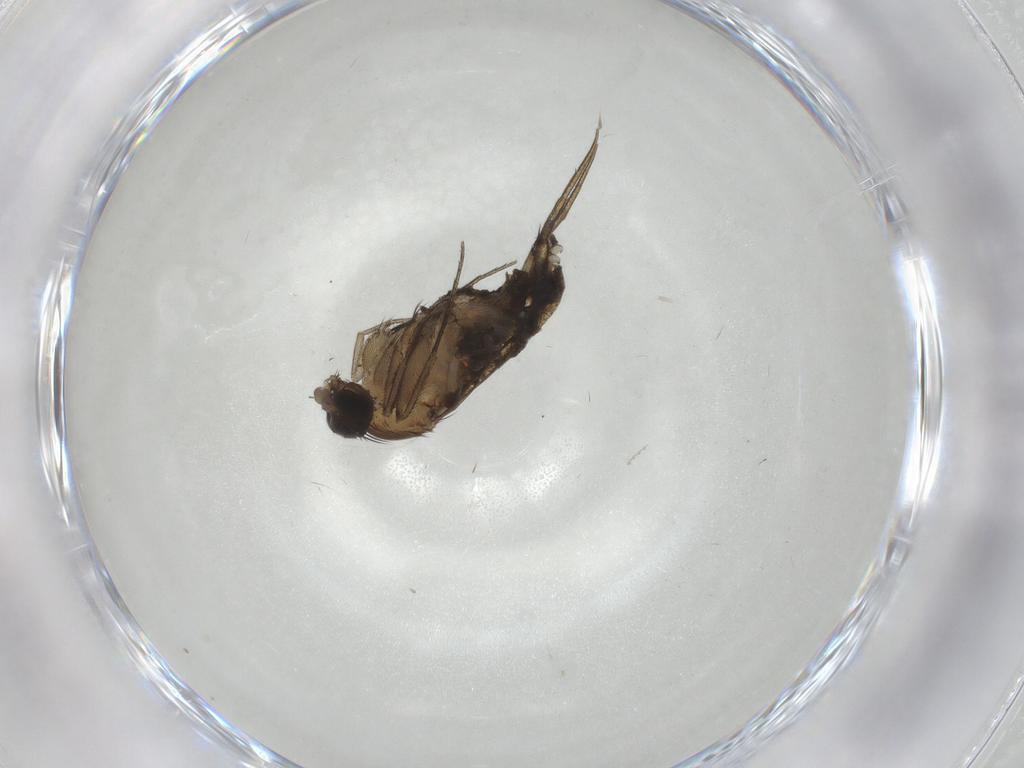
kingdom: Animalia
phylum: Arthropoda
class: Insecta
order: Diptera
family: Phoridae
